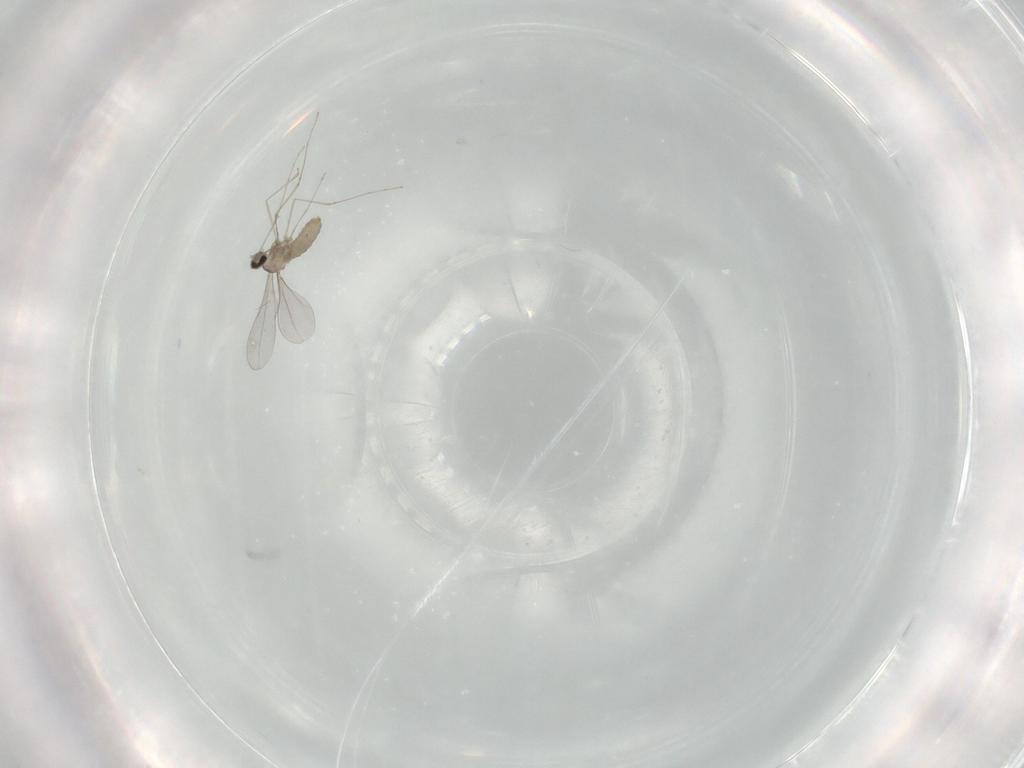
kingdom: Animalia
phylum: Arthropoda
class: Insecta
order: Diptera
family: Cecidomyiidae
